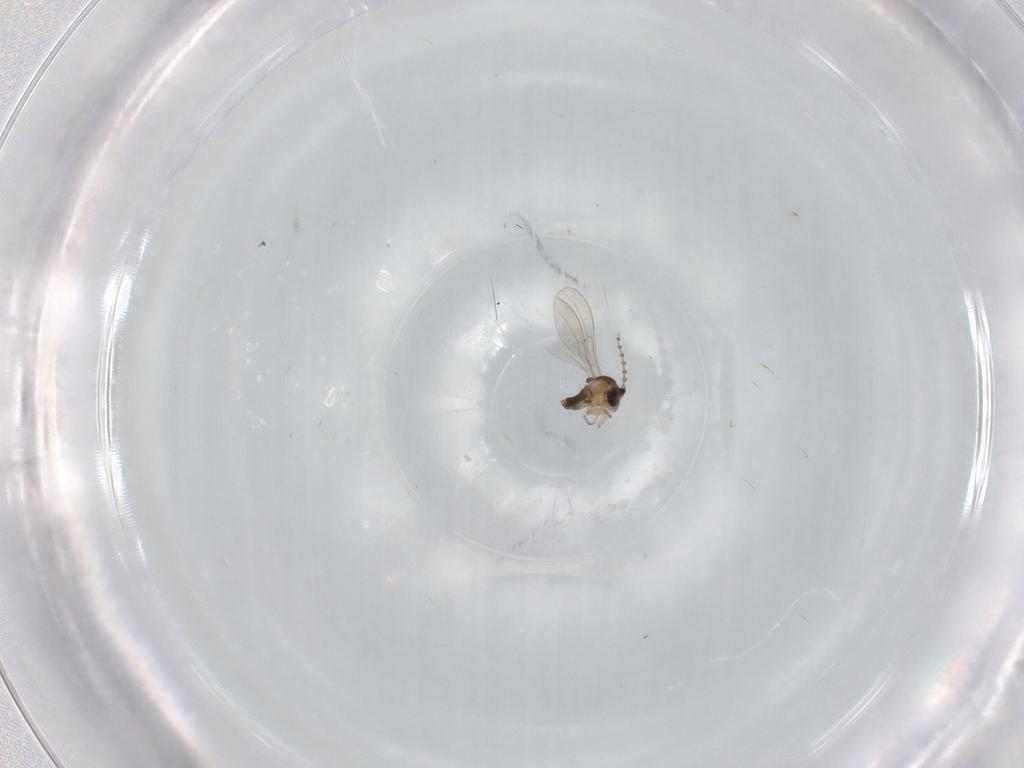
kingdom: Animalia
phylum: Arthropoda
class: Insecta
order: Diptera
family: Cecidomyiidae
